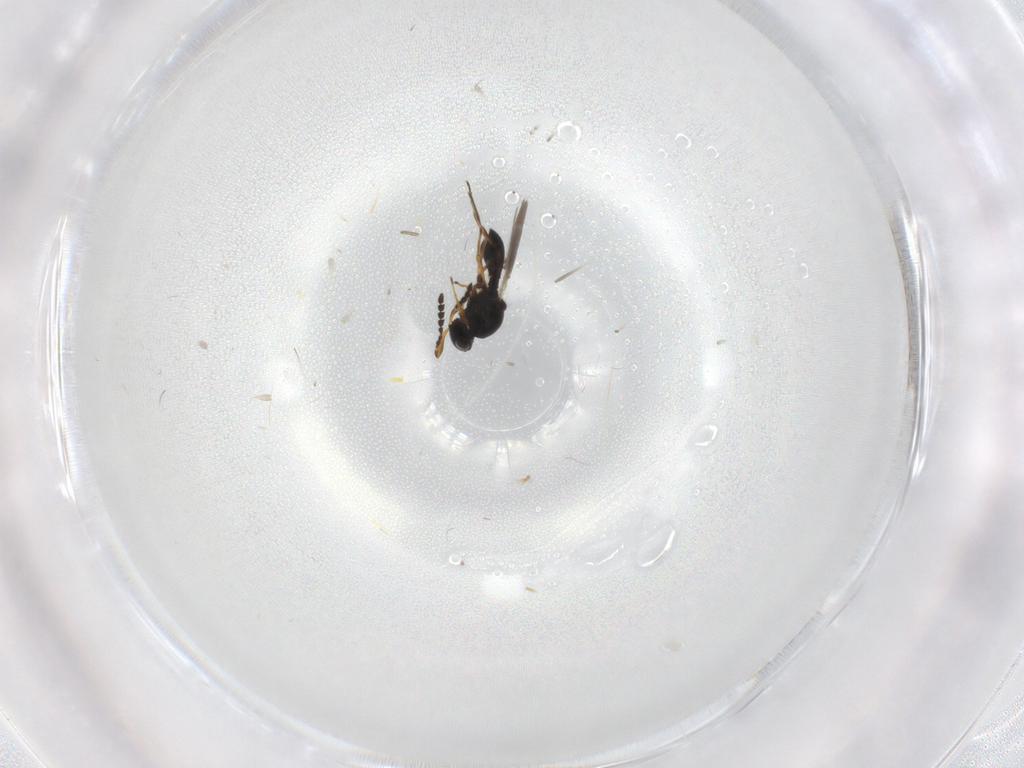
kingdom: Animalia
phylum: Arthropoda
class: Insecta
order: Hymenoptera
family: Platygastridae
